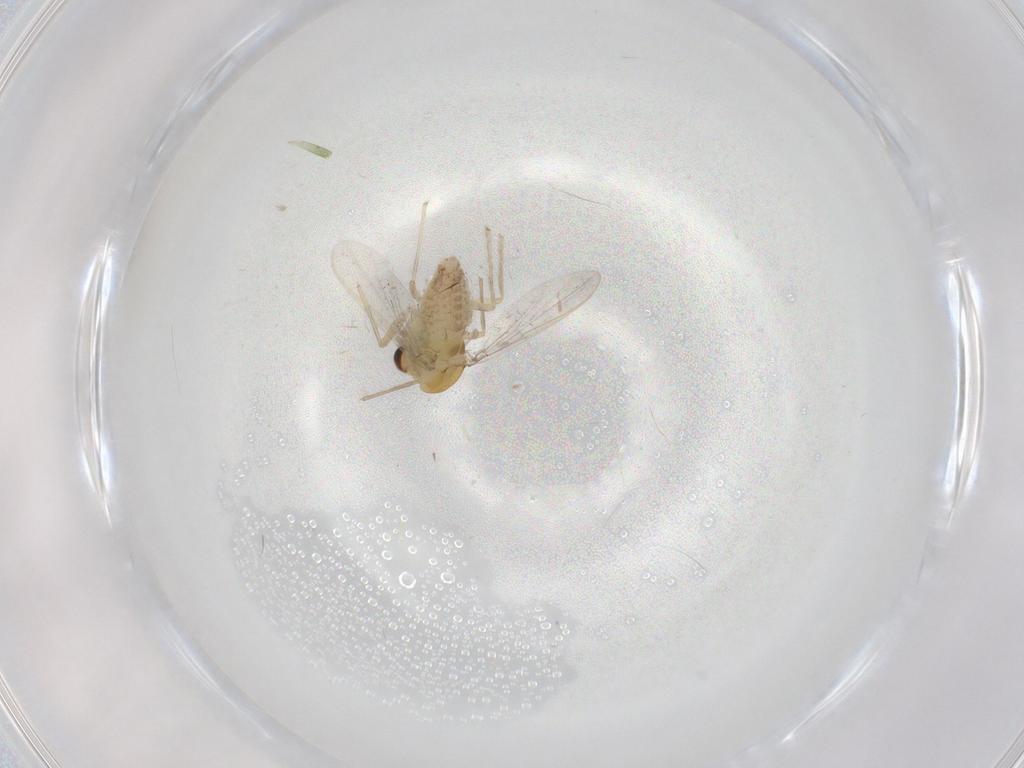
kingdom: Animalia
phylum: Arthropoda
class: Insecta
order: Diptera
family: Chironomidae
